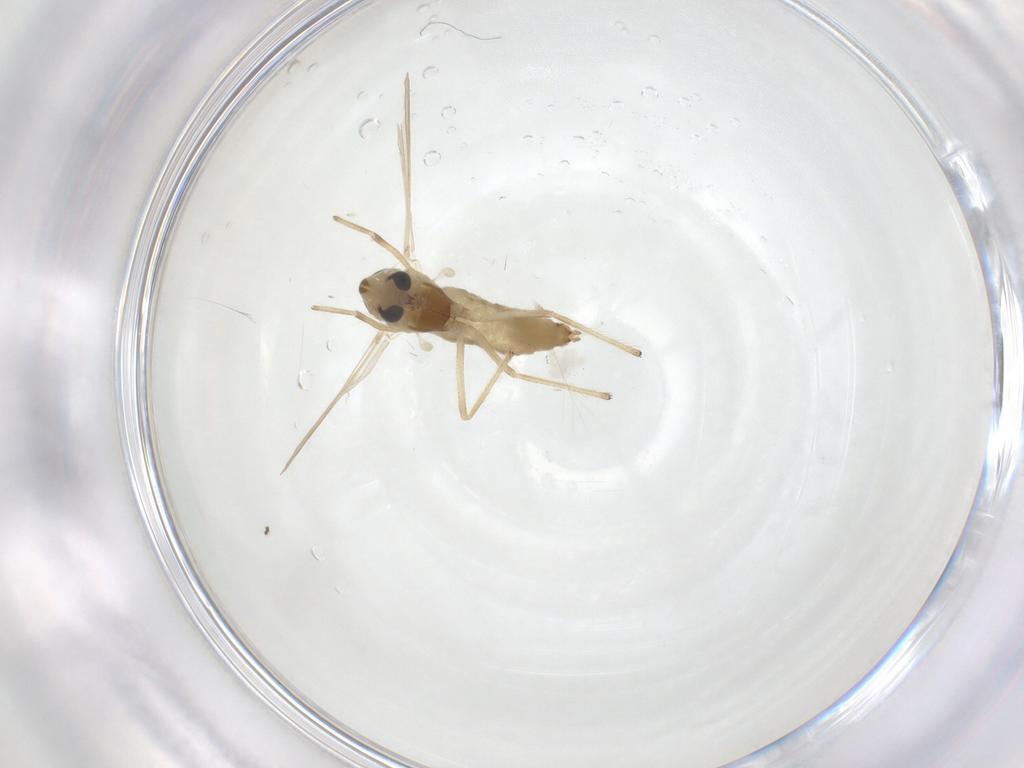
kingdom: Animalia
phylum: Arthropoda
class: Insecta
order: Diptera
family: Chironomidae
